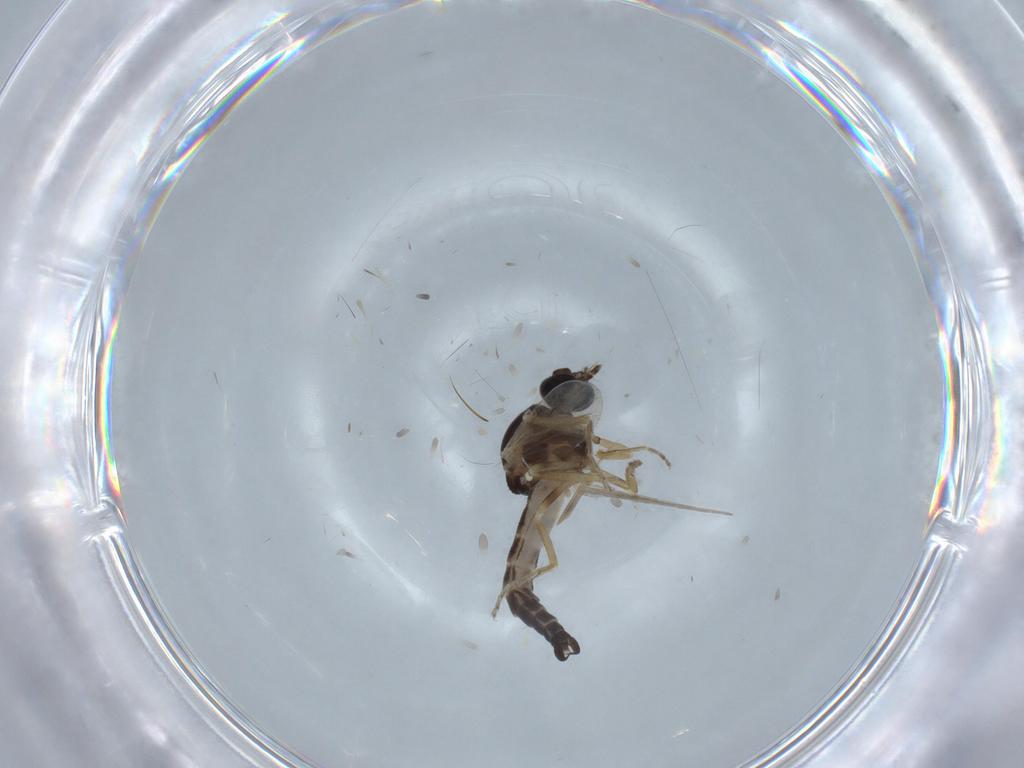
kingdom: Animalia
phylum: Arthropoda
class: Insecta
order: Diptera
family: Ceratopogonidae
